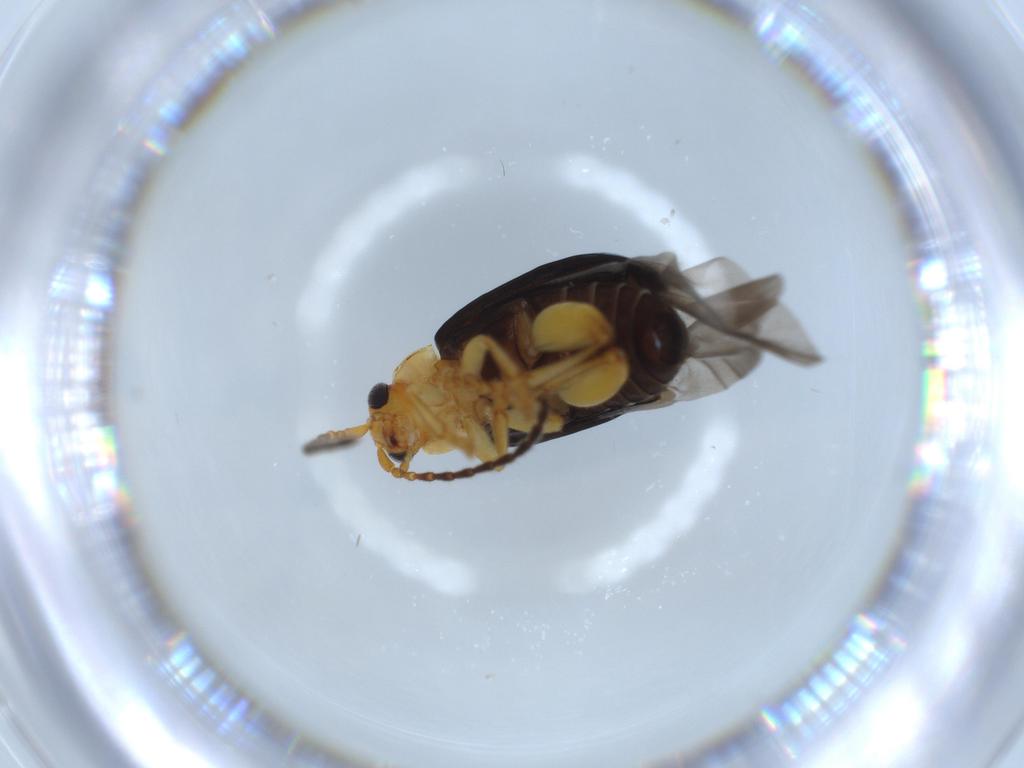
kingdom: Animalia
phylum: Arthropoda
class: Insecta
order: Coleoptera
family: Chrysomelidae
